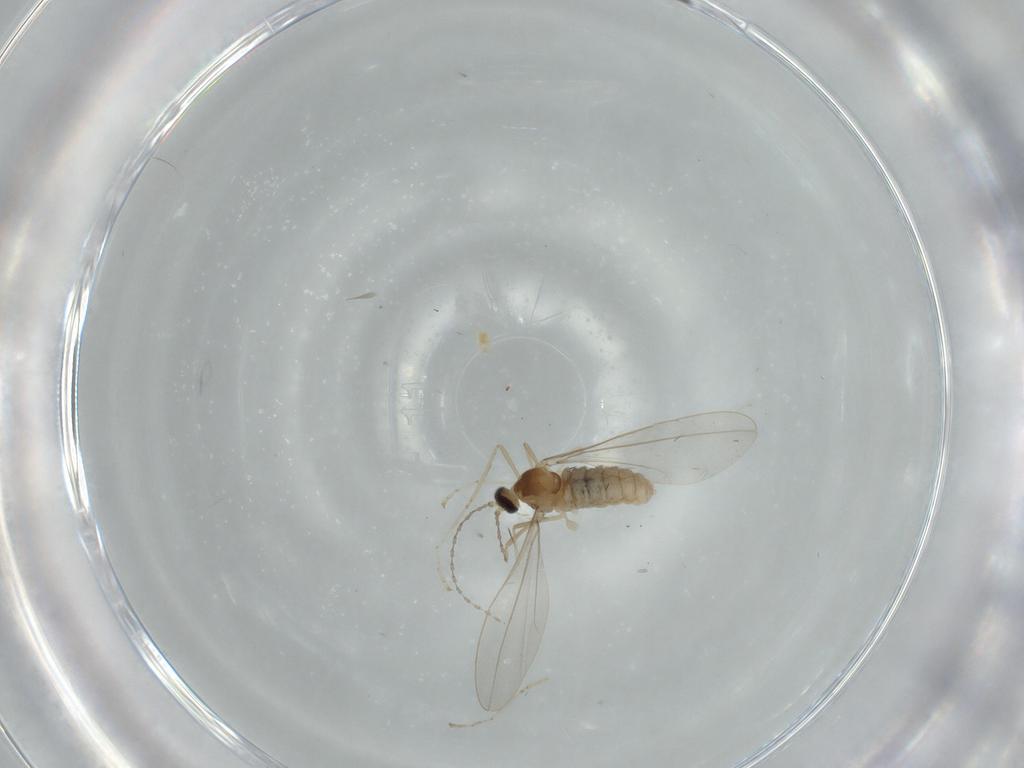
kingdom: Animalia
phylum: Arthropoda
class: Insecta
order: Diptera
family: Cecidomyiidae
